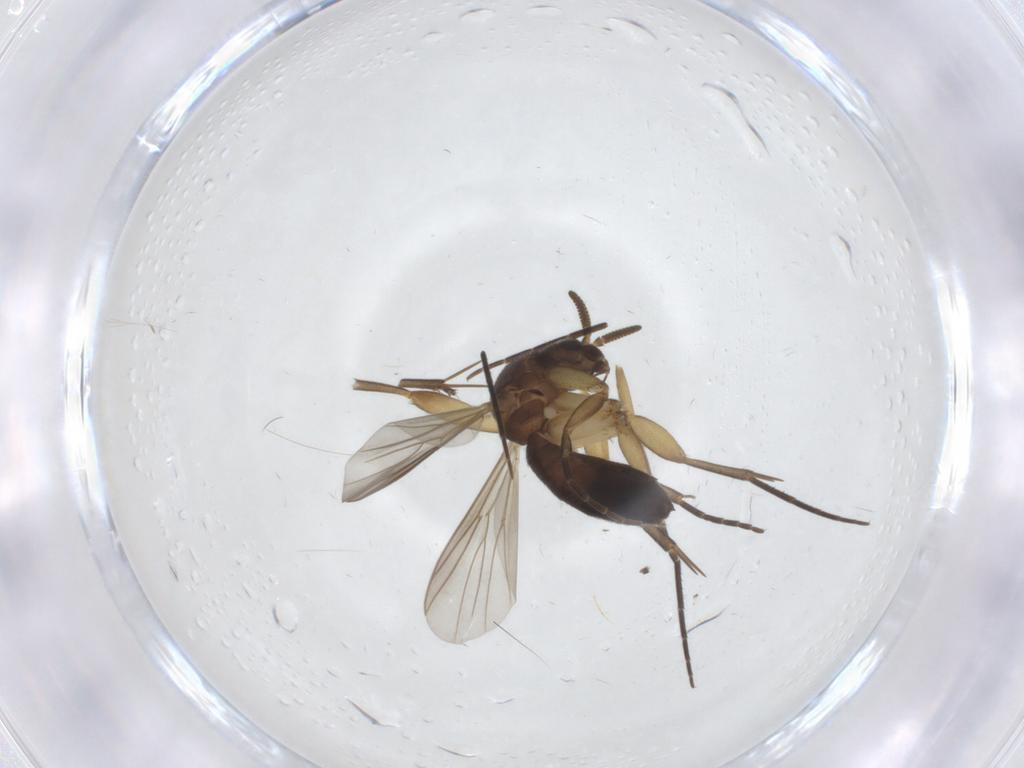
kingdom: Animalia
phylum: Arthropoda
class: Insecta
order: Diptera
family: Mycetophilidae
